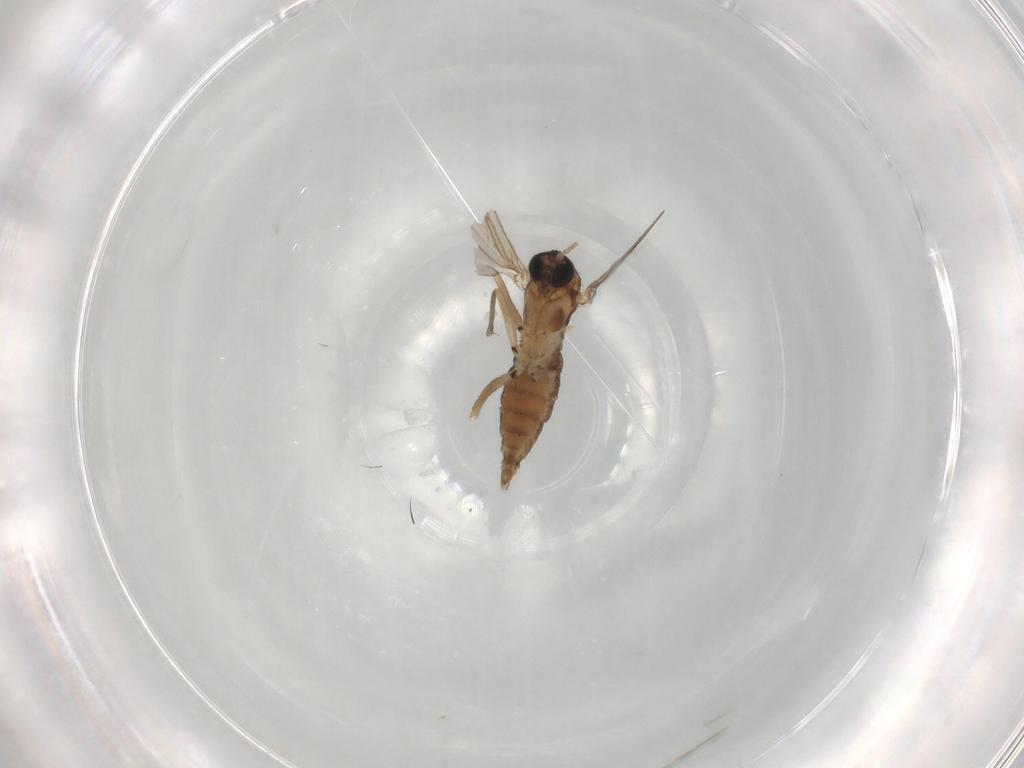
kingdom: Animalia
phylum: Arthropoda
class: Insecta
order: Diptera
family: Sciaridae
